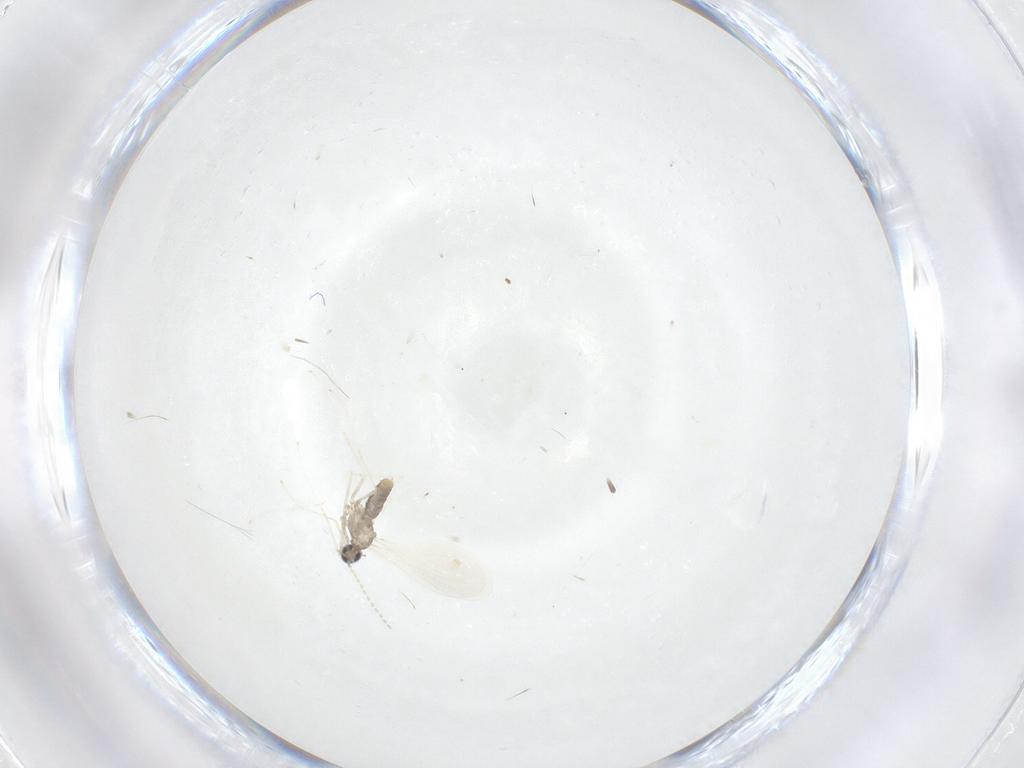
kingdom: Animalia
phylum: Arthropoda
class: Insecta
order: Diptera
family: Cecidomyiidae
